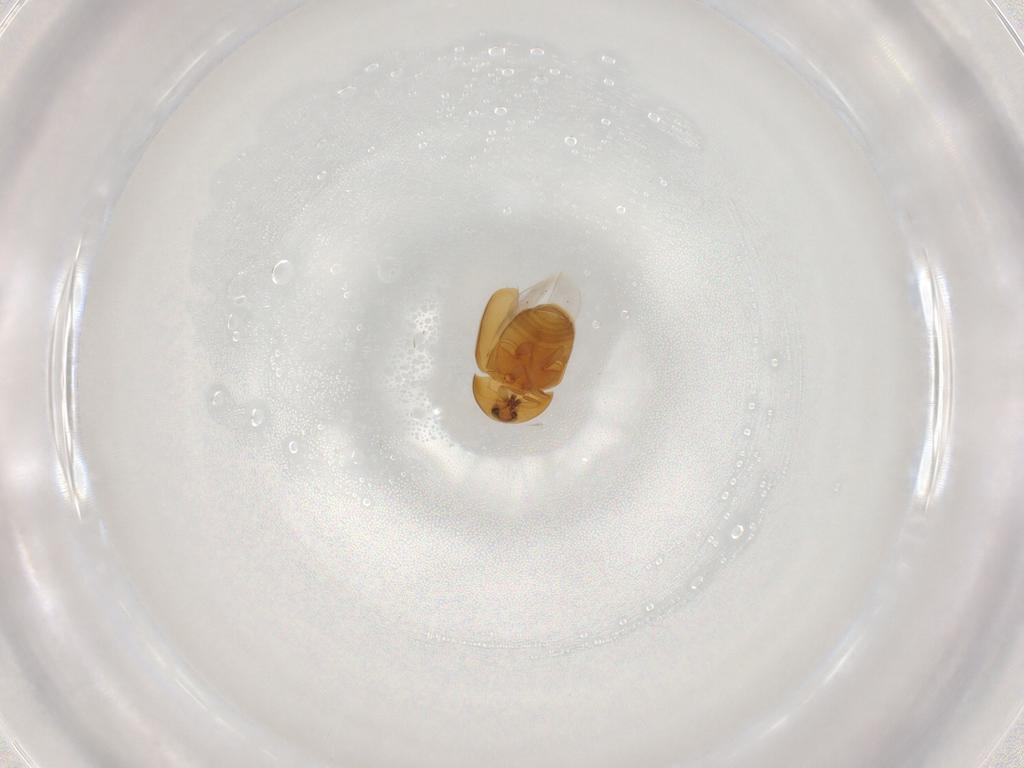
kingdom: Animalia
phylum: Arthropoda
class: Insecta
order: Coleoptera
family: Corylophidae
